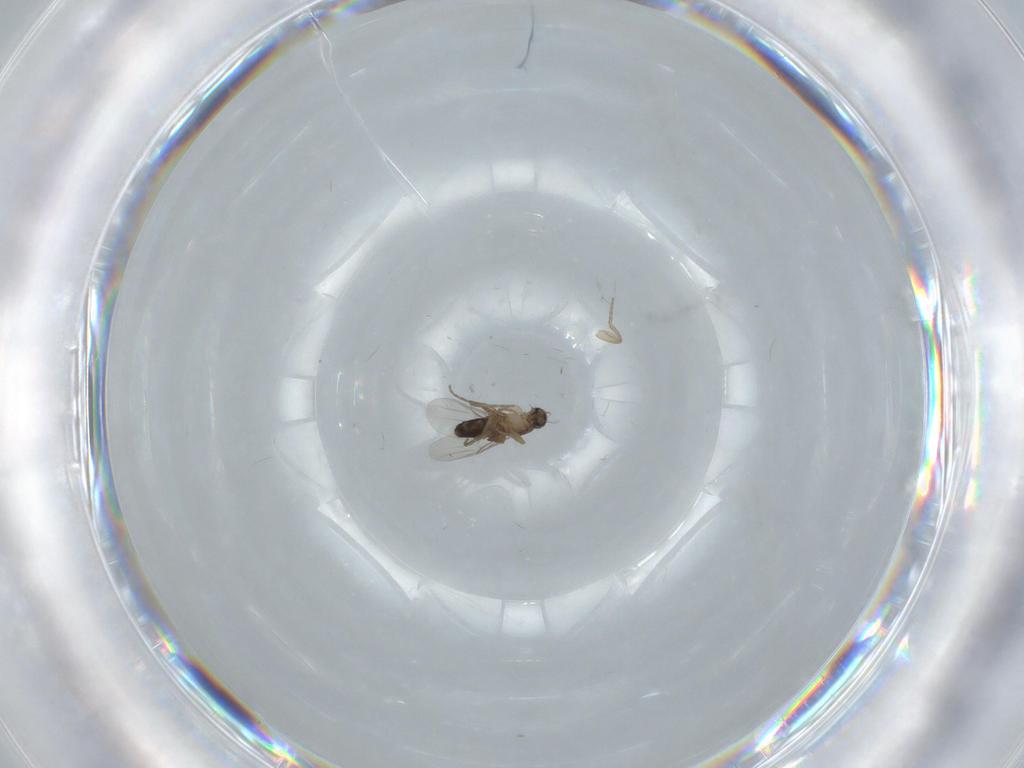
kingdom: Animalia
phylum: Arthropoda
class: Insecta
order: Diptera
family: Phoridae
